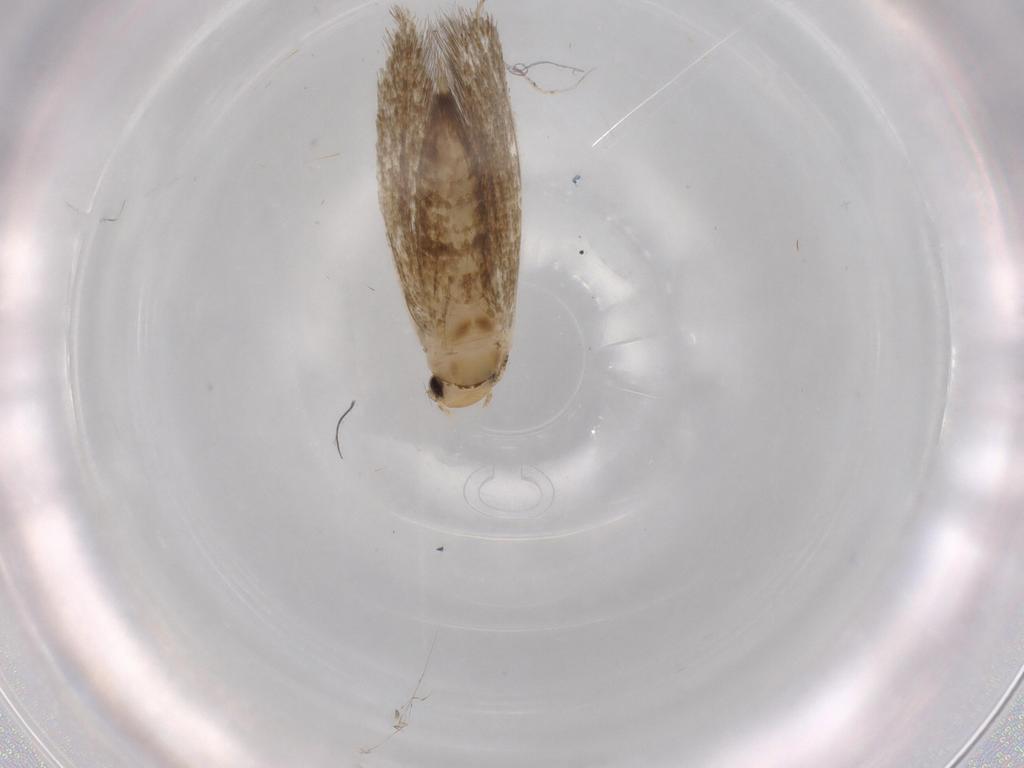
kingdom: Animalia
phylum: Arthropoda
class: Insecta
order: Lepidoptera
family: Tineidae
